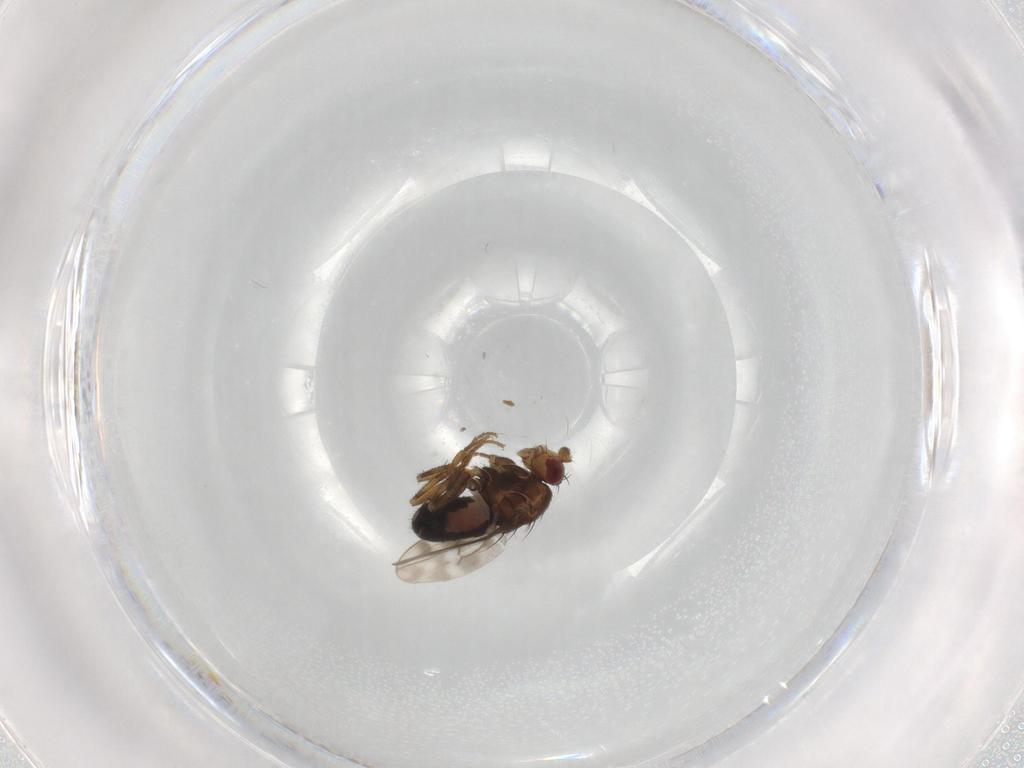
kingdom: Animalia
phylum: Arthropoda
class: Insecta
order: Diptera
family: Sphaeroceridae
